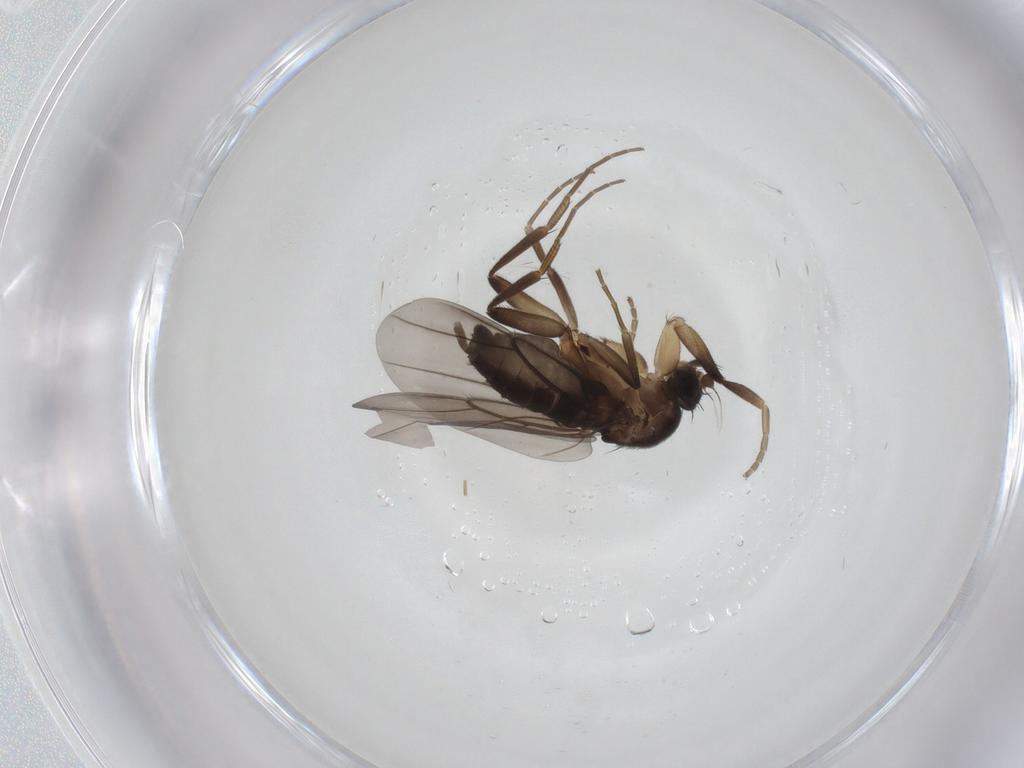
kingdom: Animalia
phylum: Arthropoda
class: Insecta
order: Diptera
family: Phoridae
